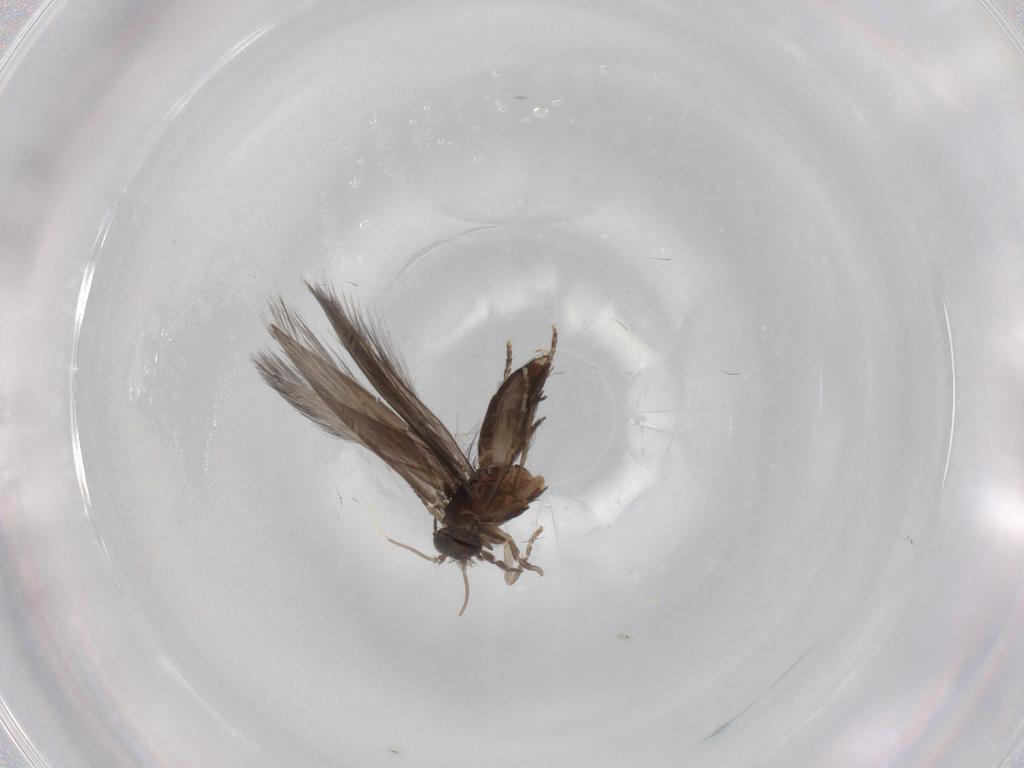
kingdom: Animalia
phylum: Arthropoda
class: Insecta
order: Trichoptera
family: Hydroptilidae
